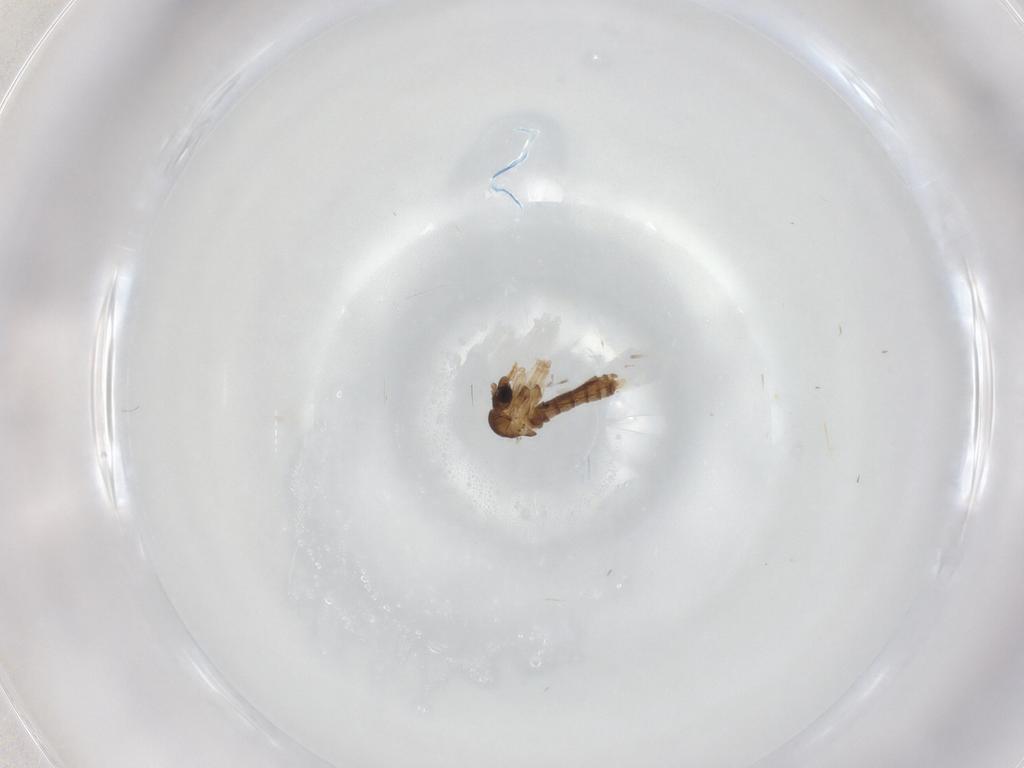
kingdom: Animalia
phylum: Arthropoda
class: Insecta
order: Diptera
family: Psychodidae
